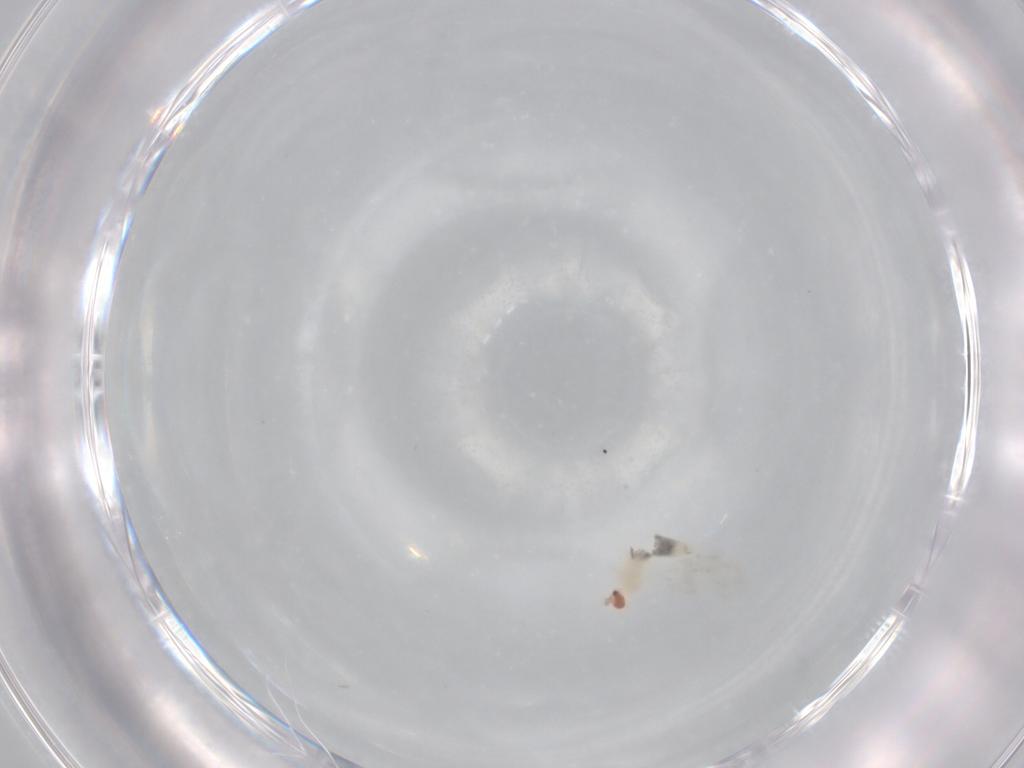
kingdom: Animalia
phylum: Arthropoda
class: Insecta
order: Diptera
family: Cecidomyiidae
